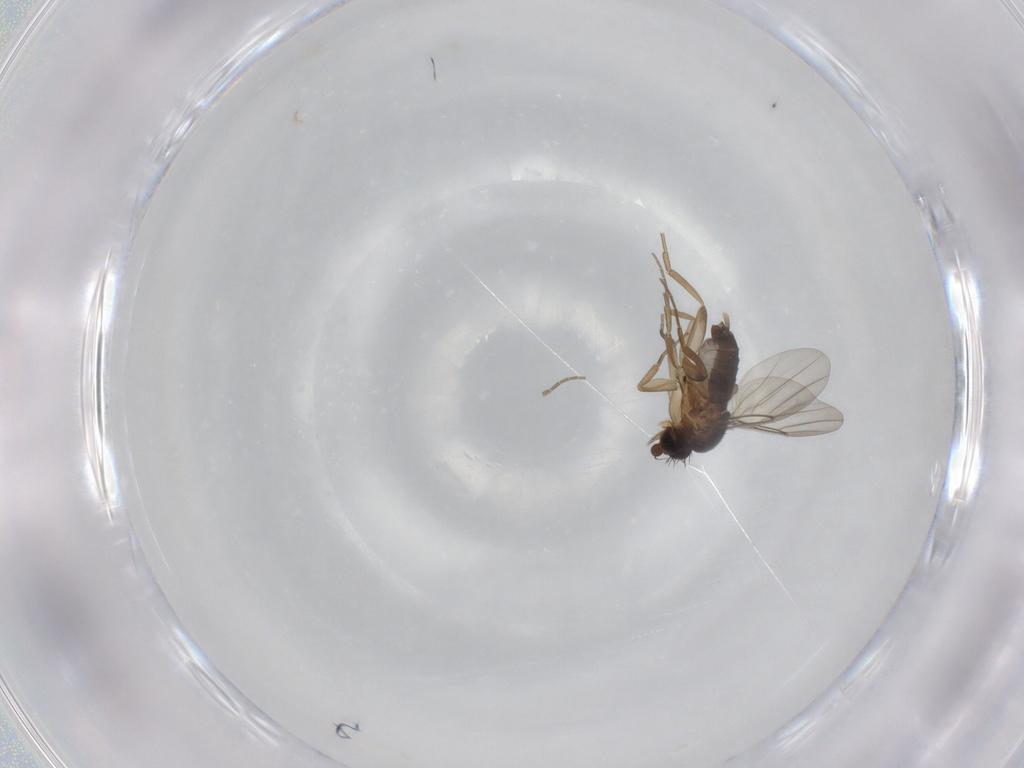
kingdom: Animalia
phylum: Arthropoda
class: Insecta
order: Diptera
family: Phoridae
